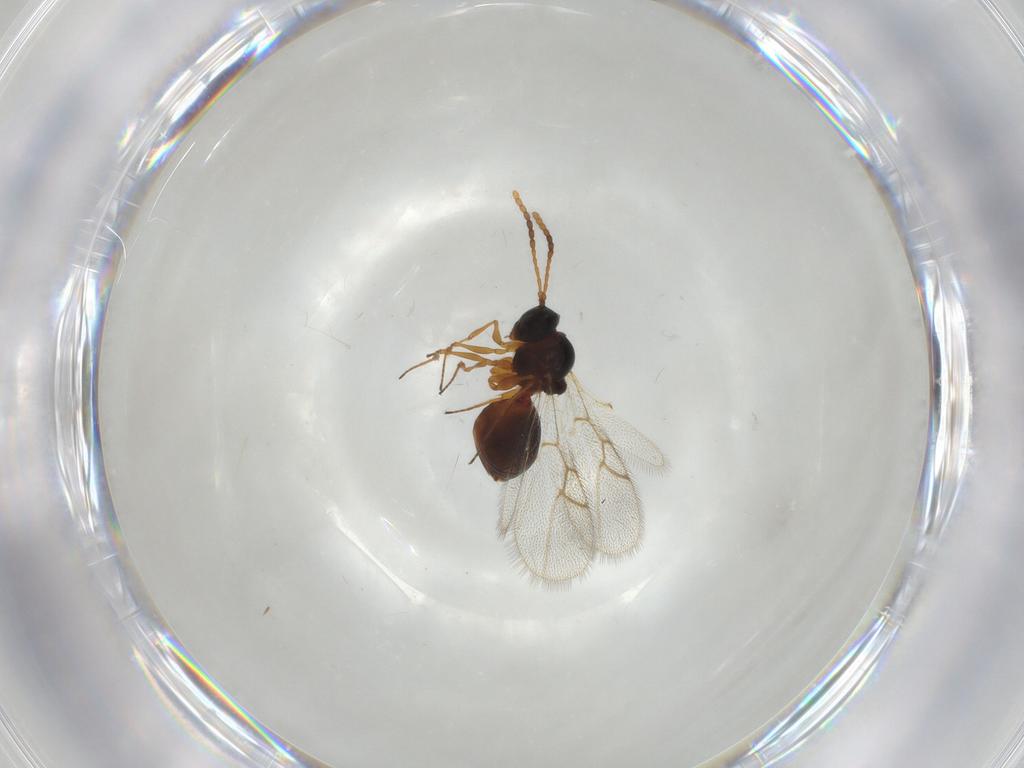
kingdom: Animalia
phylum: Arthropoda
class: Insecta
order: Hymenoptera
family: Figitidae
